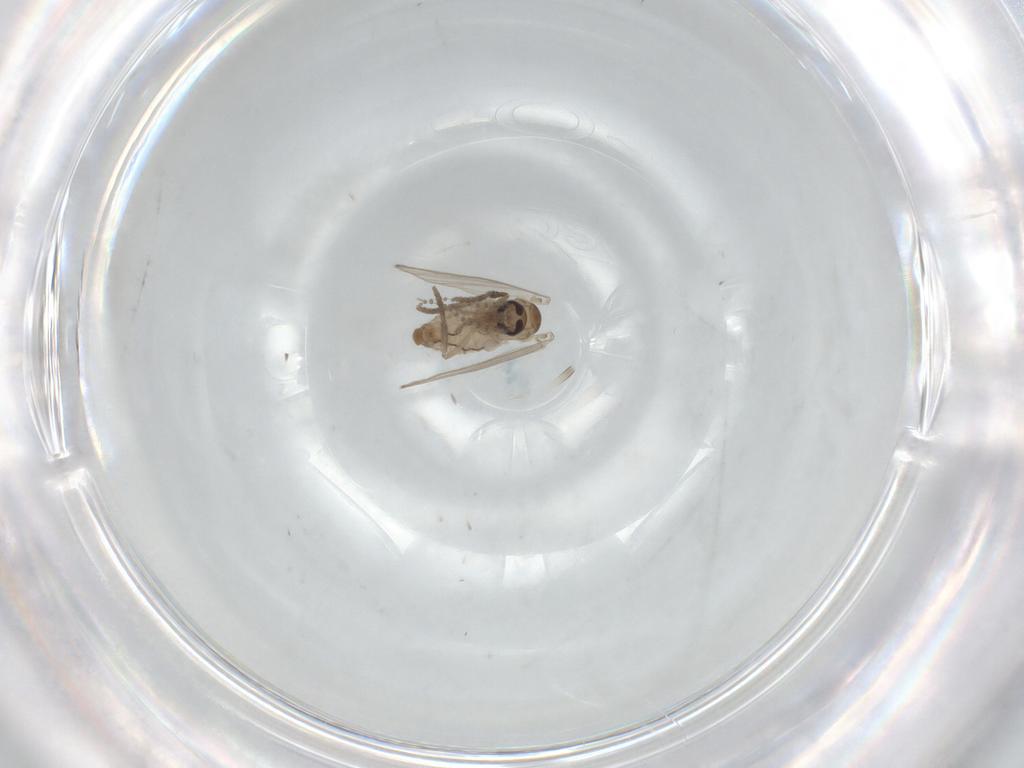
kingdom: Animalia
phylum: Arthropoda
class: Insecta
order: Diptera
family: Psychodidae
